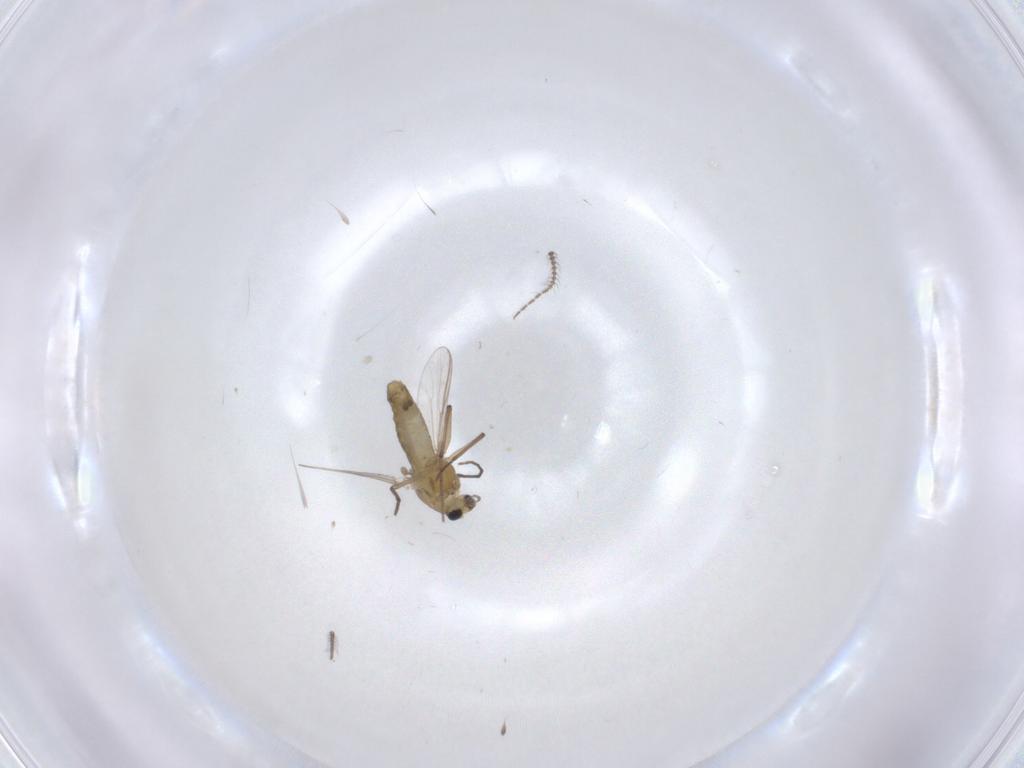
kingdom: Animalia
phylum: Arthropoda
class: Insecta
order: Diptera
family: Chironomidae
